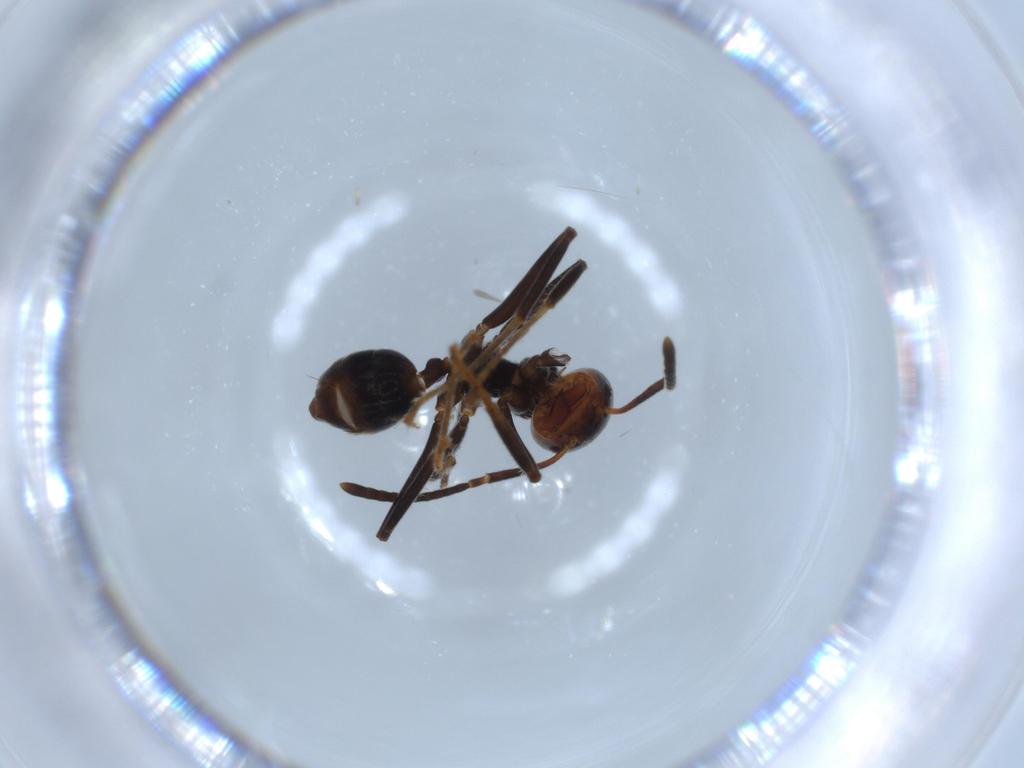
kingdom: Animalia
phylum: Arthropoda
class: Insecta
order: Hymenoptera
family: Formicidae
